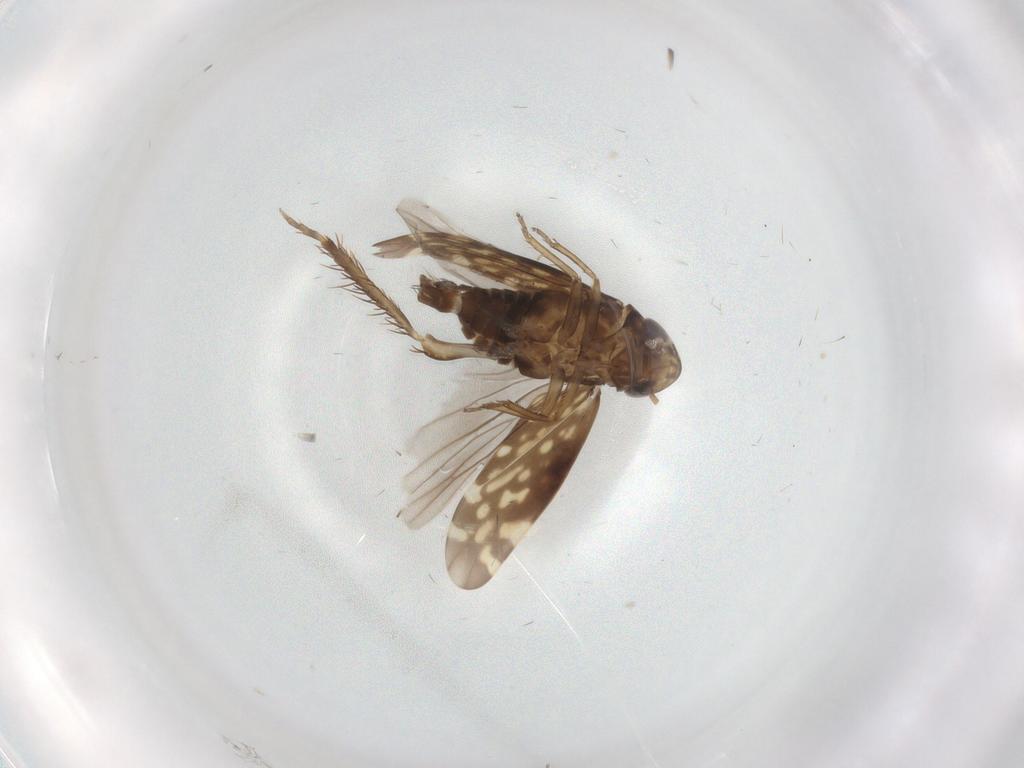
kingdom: Animalia
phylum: Arthropoda
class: Insecta
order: Hemiptera
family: Cicadellidae
